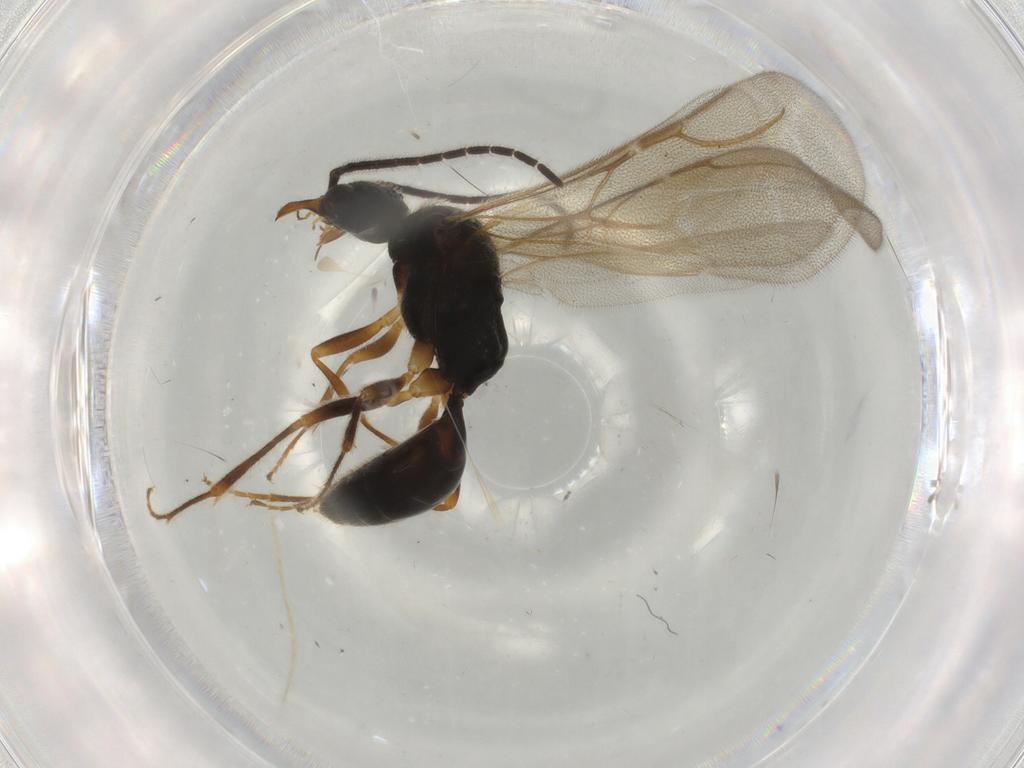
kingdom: Animalia
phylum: Arthropoda
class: Insecta
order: Hymenoptera
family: Bethylidae
